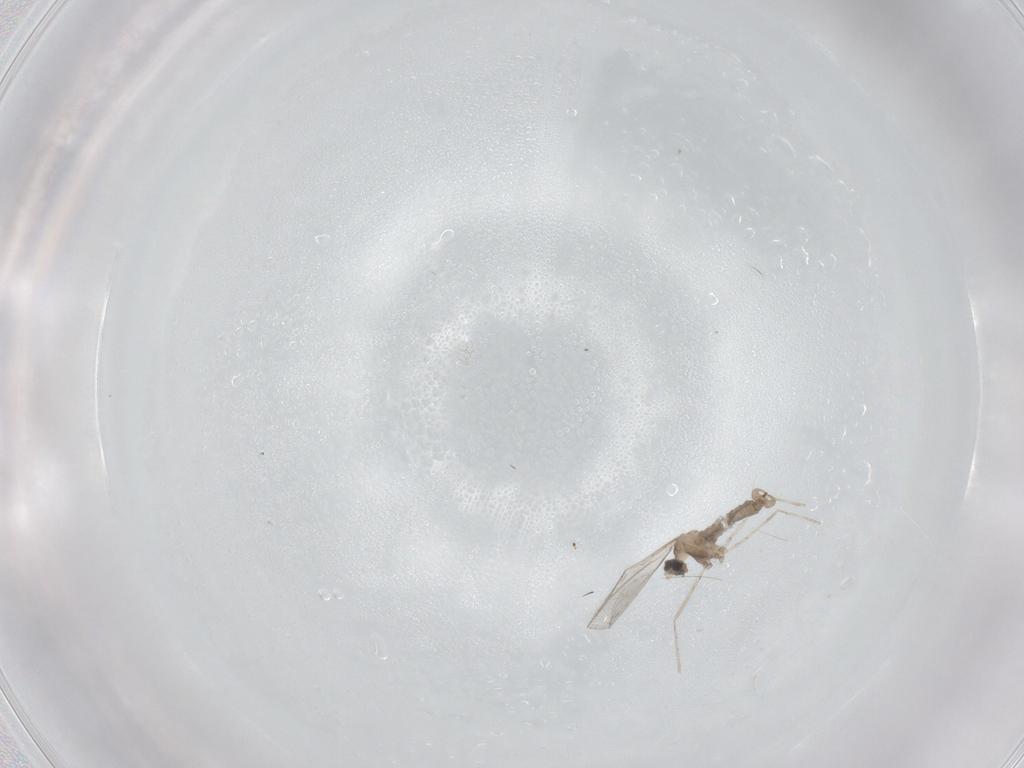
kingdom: Animalia
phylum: Arthropoda
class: Insecta
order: Diptera
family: Cecidomyiidae
